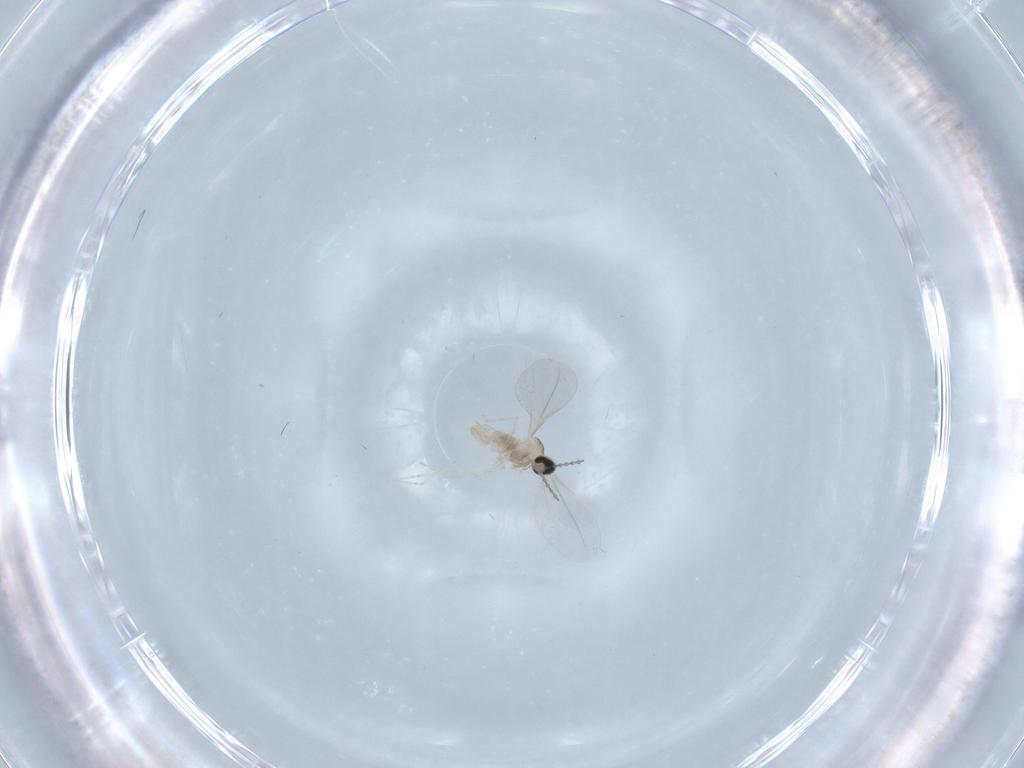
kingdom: Animalia
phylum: Arthropoda
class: Insecta
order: Diptera
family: Cecidomyiidae
